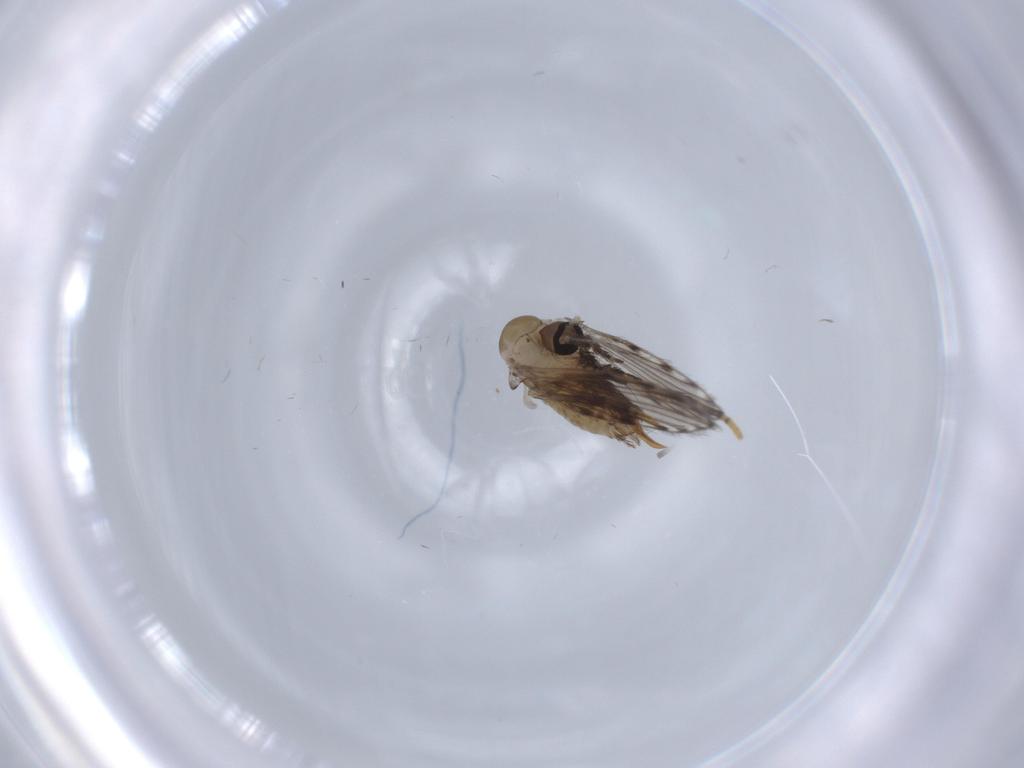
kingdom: Animalia
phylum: Arthropoda
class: Insecta
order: Diptera
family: Psychodidae
